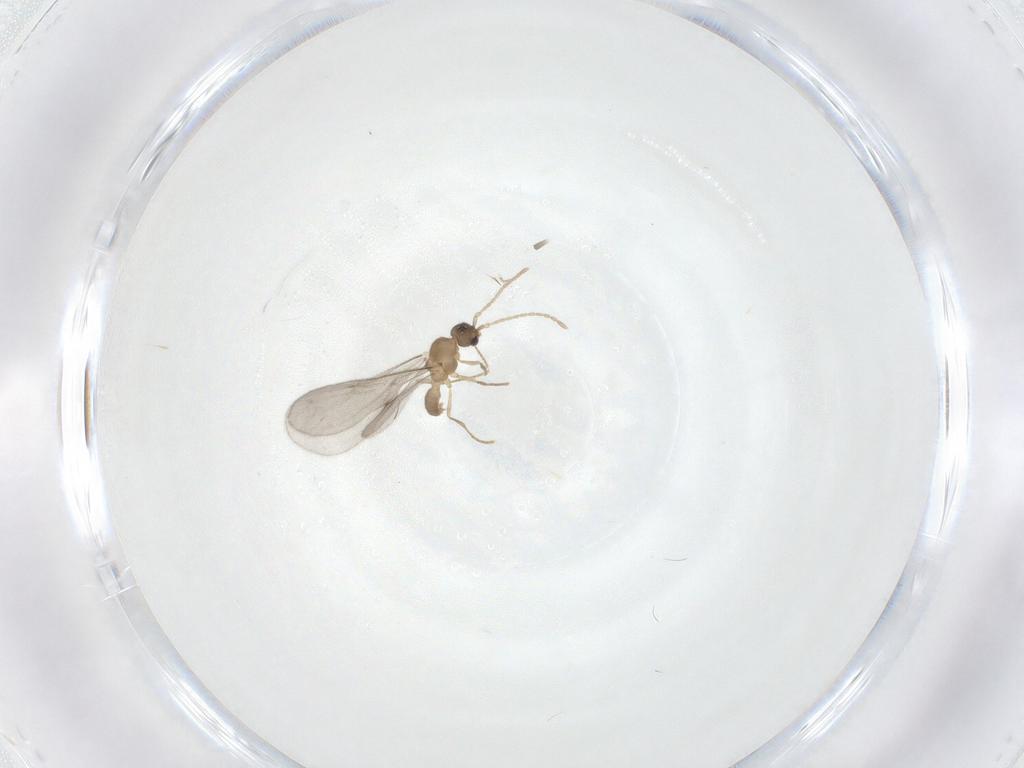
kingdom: Animalia
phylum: Arthropoda
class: Insecta
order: Hymenoptera
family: Formicidae
